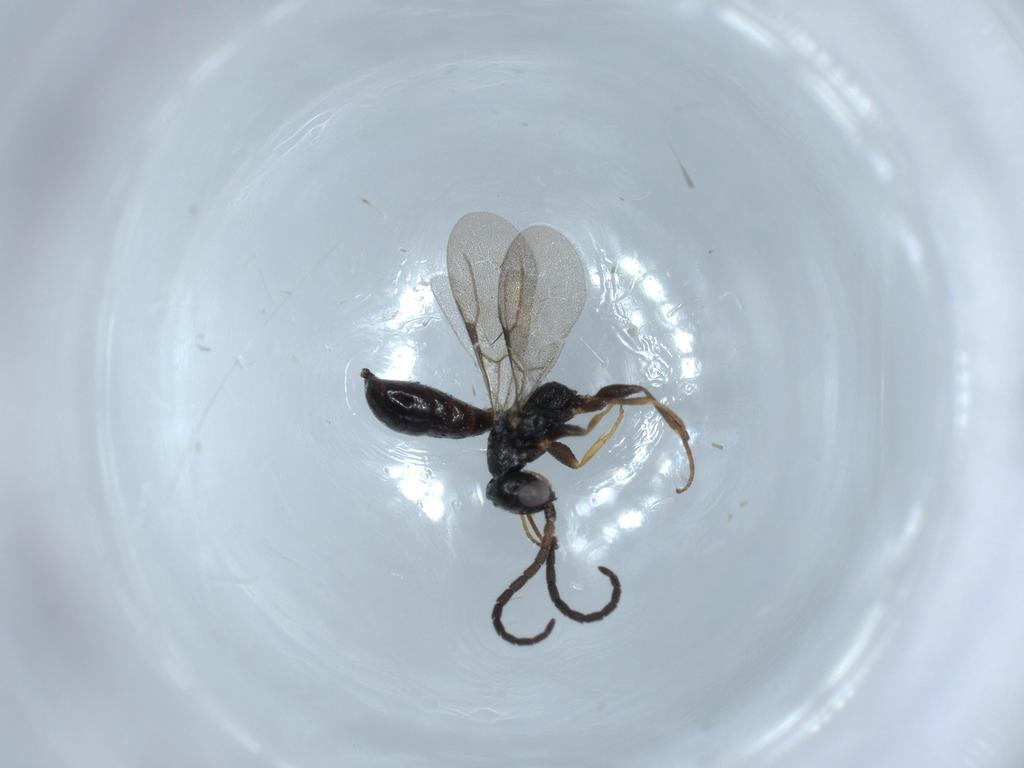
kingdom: Animalia
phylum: Arthropoda
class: Insecta
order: Hymenoptera
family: Bethylidae
